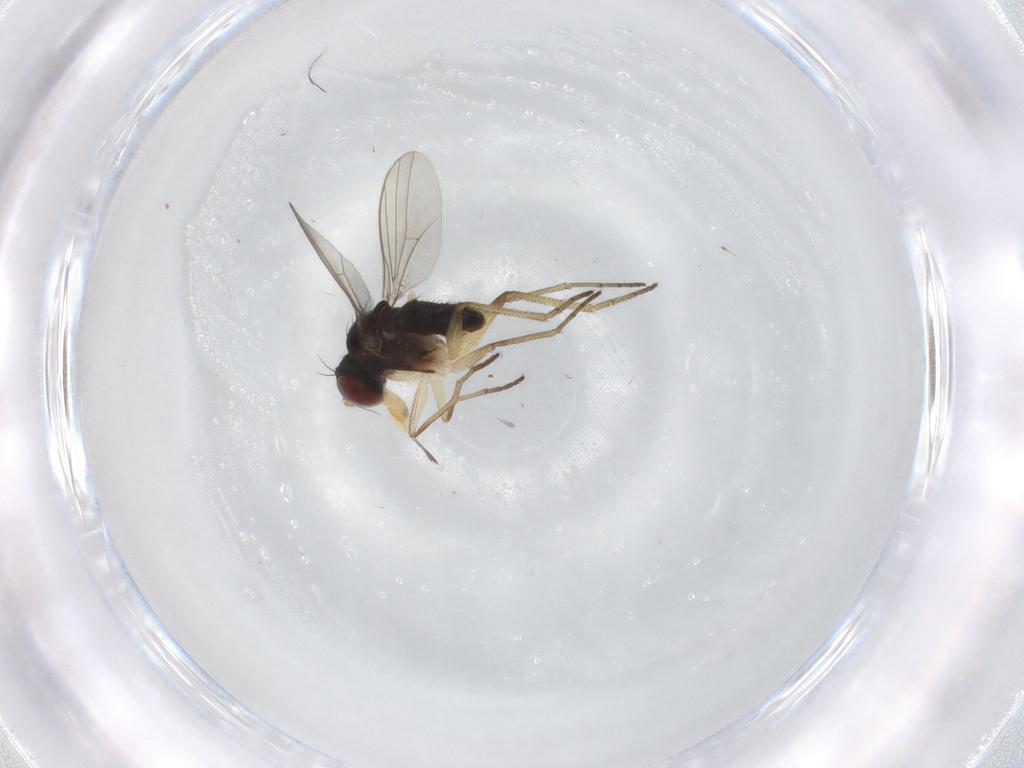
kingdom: Animalia
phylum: Arthropoda
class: Insecta
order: Diptera
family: Dolichopodidae
